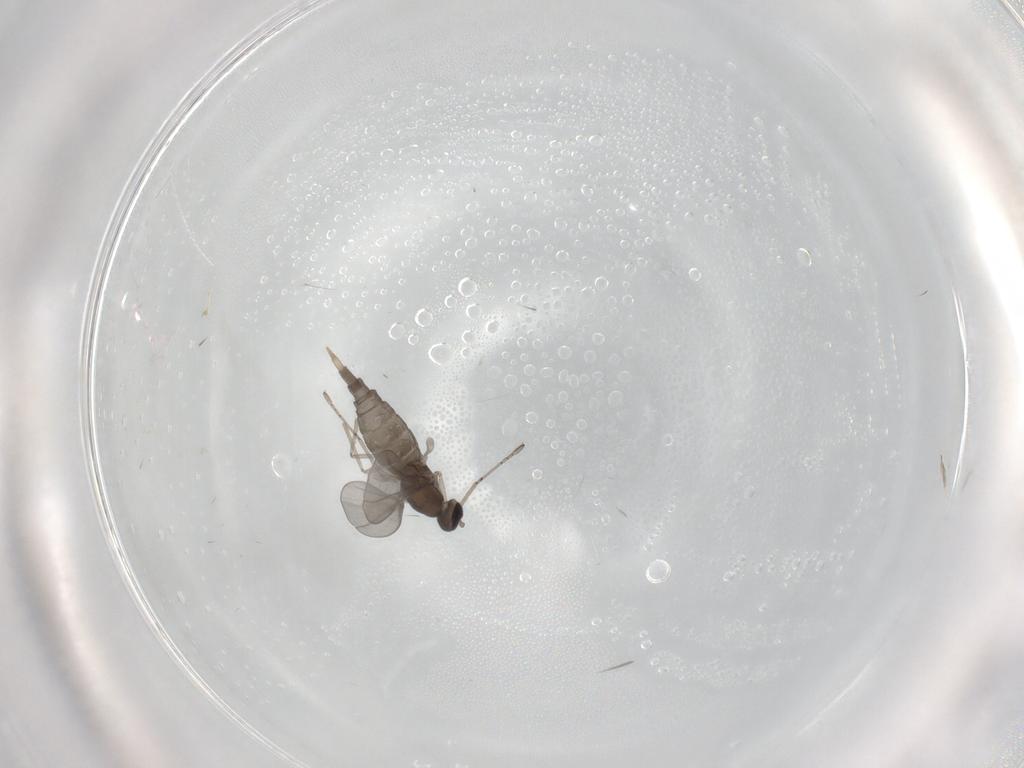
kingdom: Animalia
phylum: Arthropoda
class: Insecta
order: Diptera
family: Cecidomyiidae
